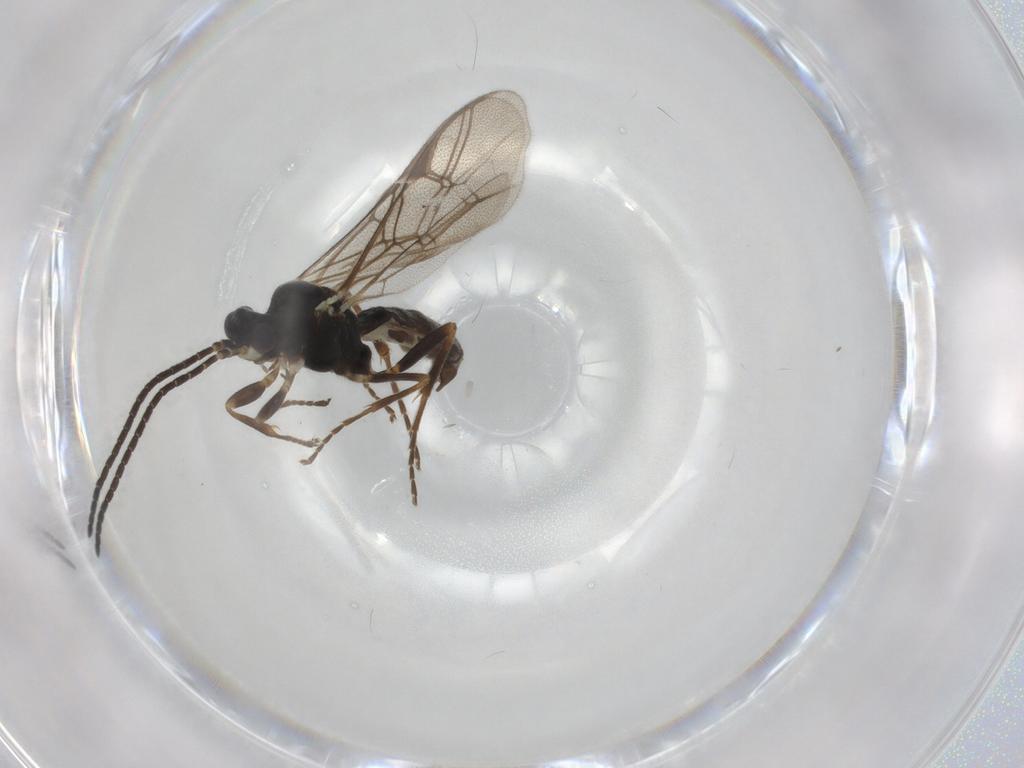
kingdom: Animalia
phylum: Arthropoda
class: Insecta
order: Hymenoptera
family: Ichneumonidae
